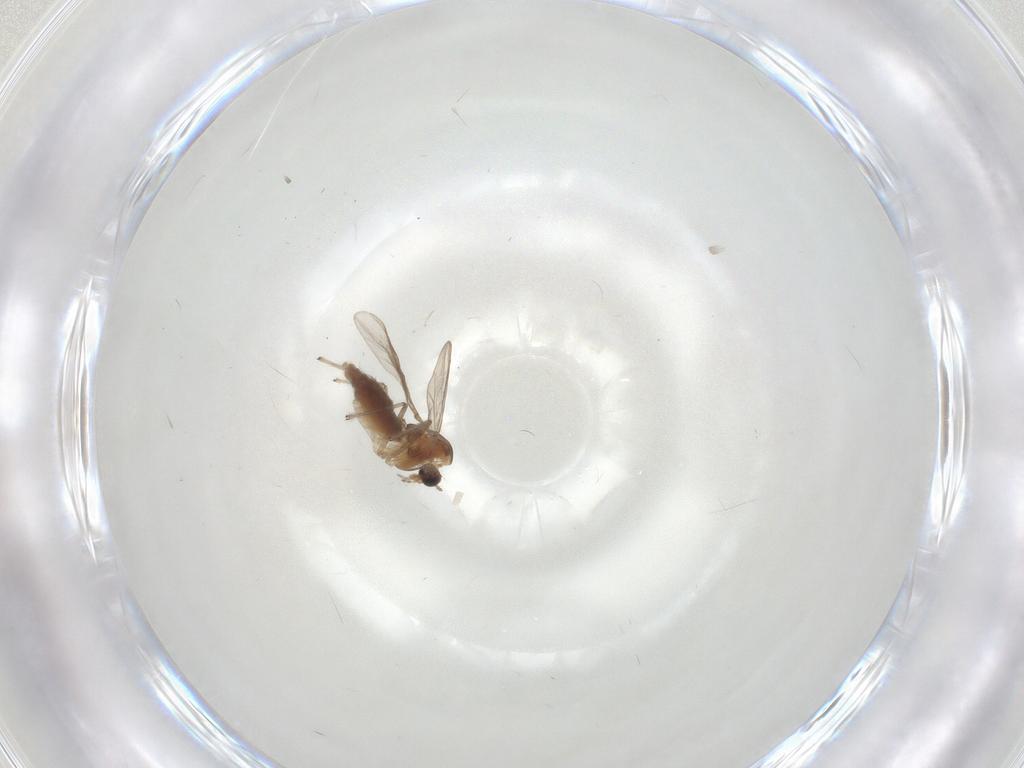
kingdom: Animalia
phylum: Arthropoda
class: Insecta
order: Diptera
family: Chironomidae
